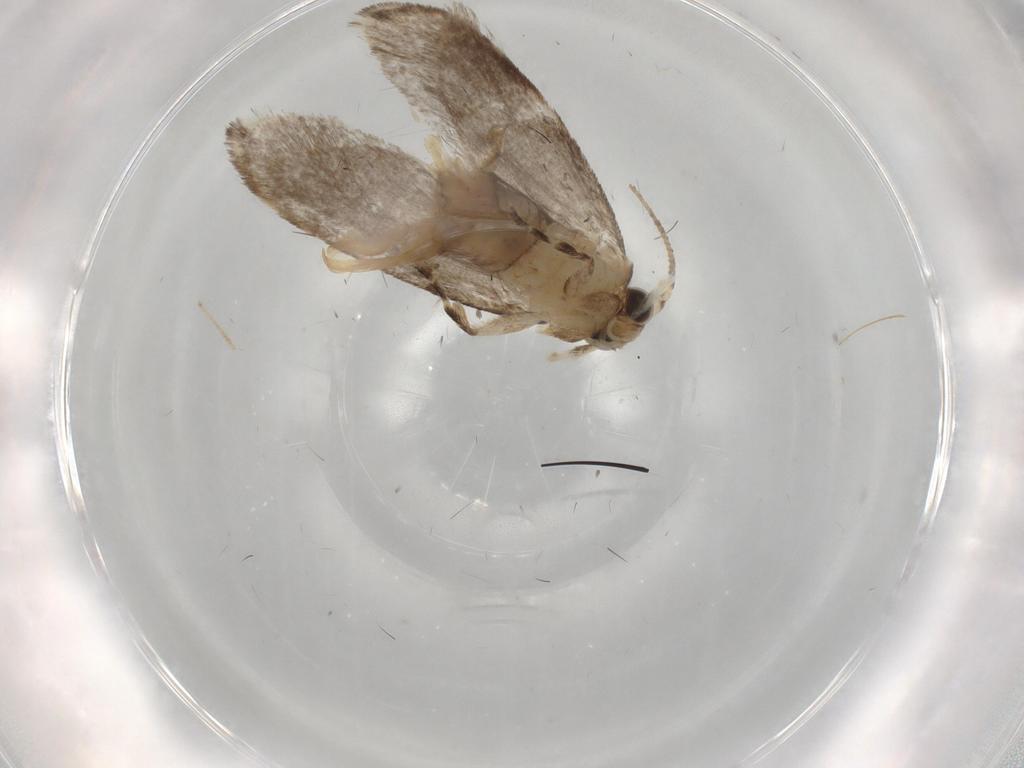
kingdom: Animalia
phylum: Arthropoda
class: Insecta
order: Lepidoptera
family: Tineidae
